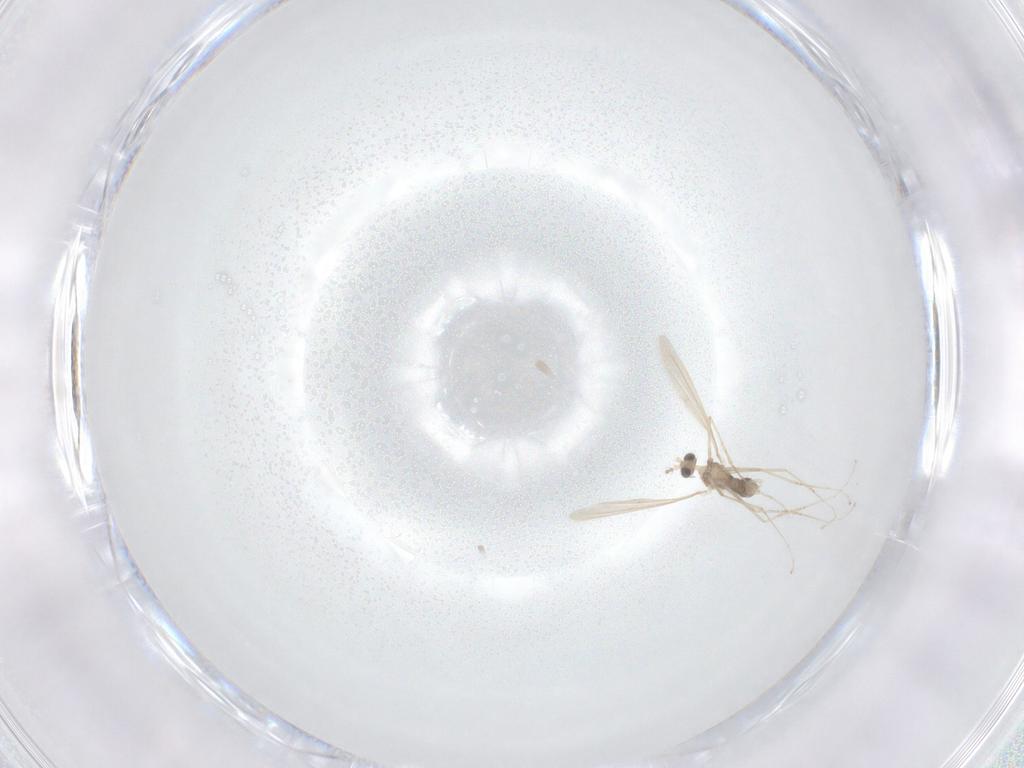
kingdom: Animalia
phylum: Arthropoda
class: Insecta
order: Diptera
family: Cecidomyiidae
